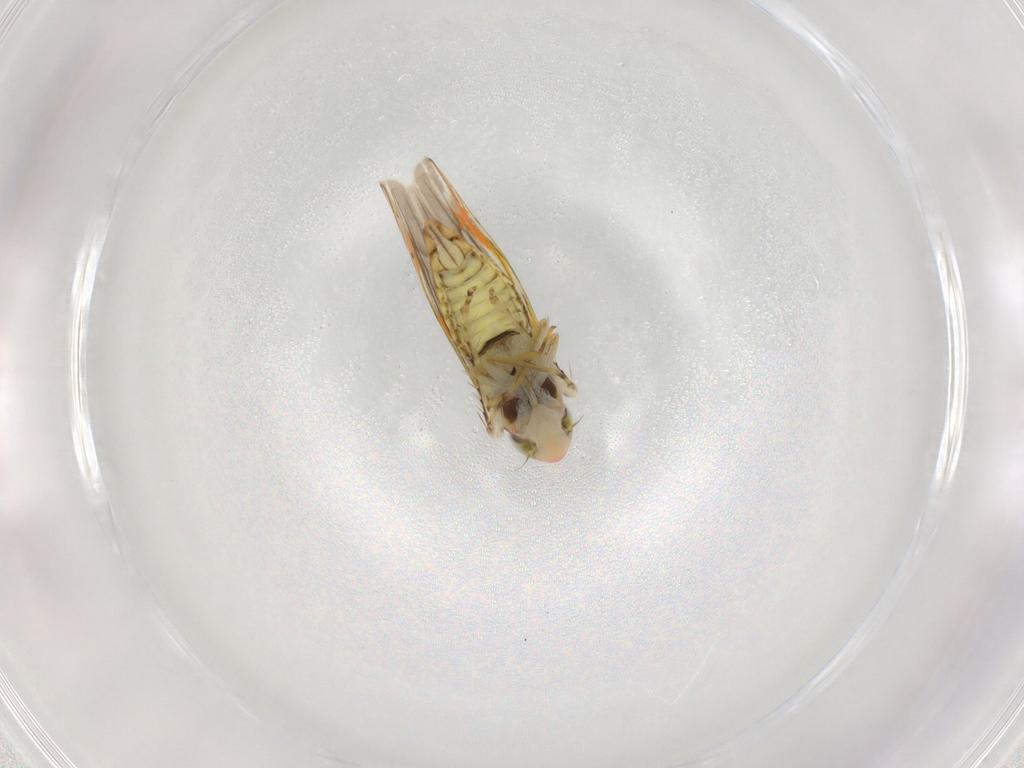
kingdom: Animalia
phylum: Arthropoda
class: Insecta
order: Hemiptera
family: Cicadellidae
